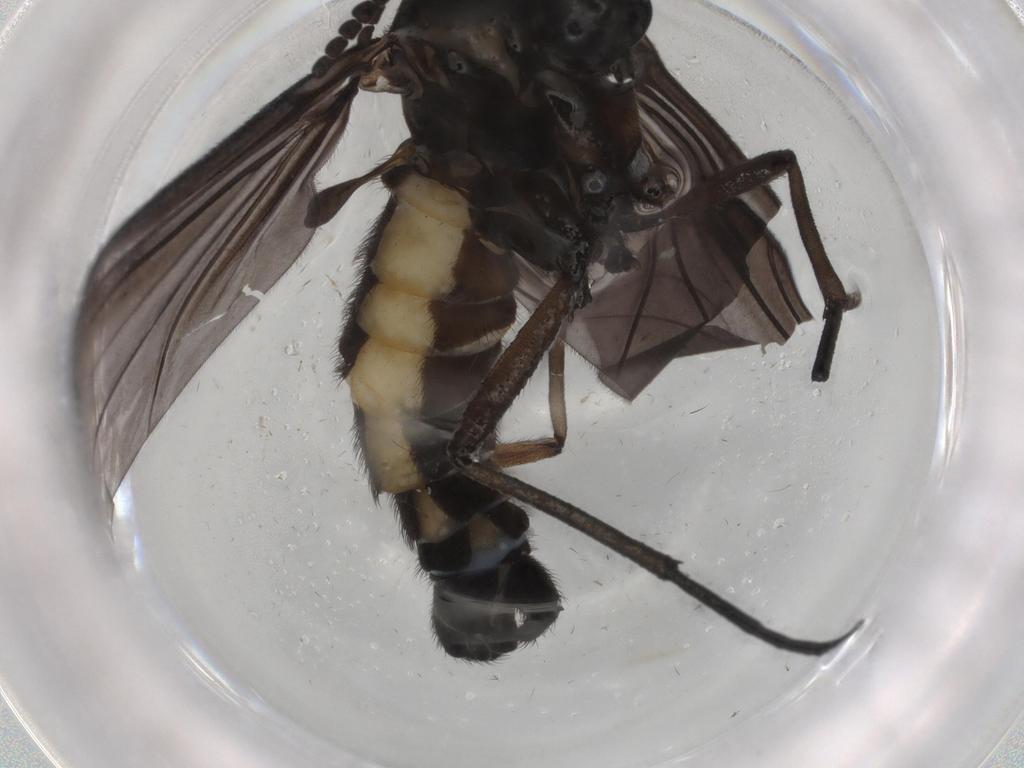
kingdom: Animalia
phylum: Arthropoda
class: Insecta
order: Diptera
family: Sciaridae
